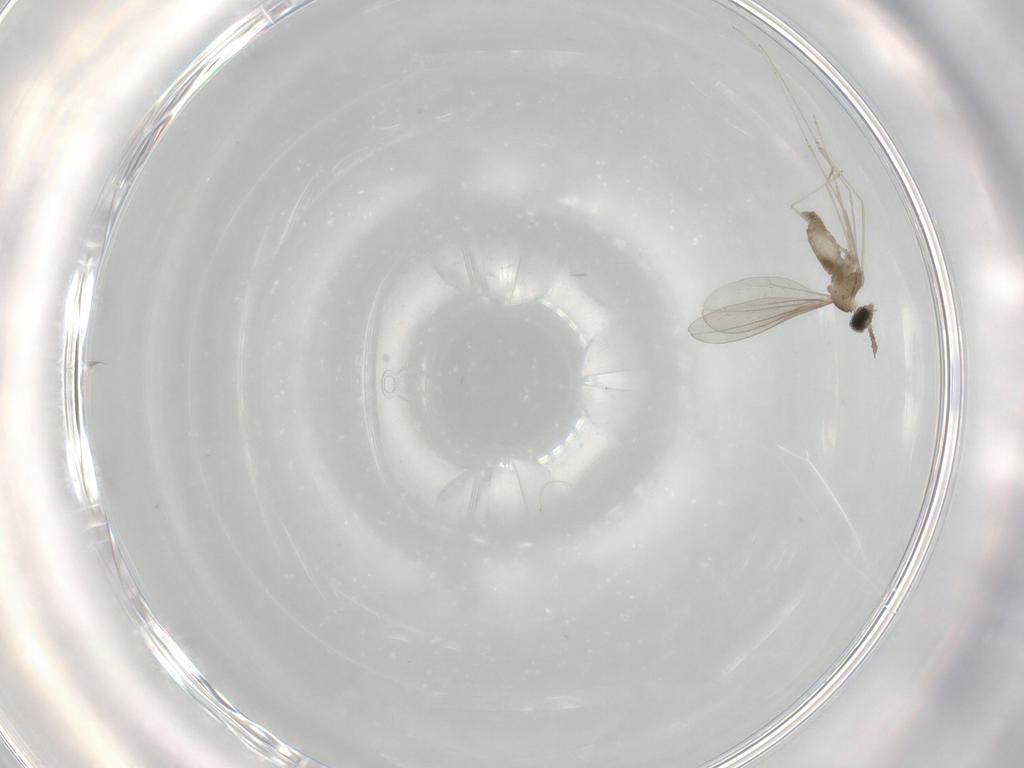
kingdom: Animalia
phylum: Arthropoda
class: Insecta
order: Diptera
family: Cecidomyiidae
